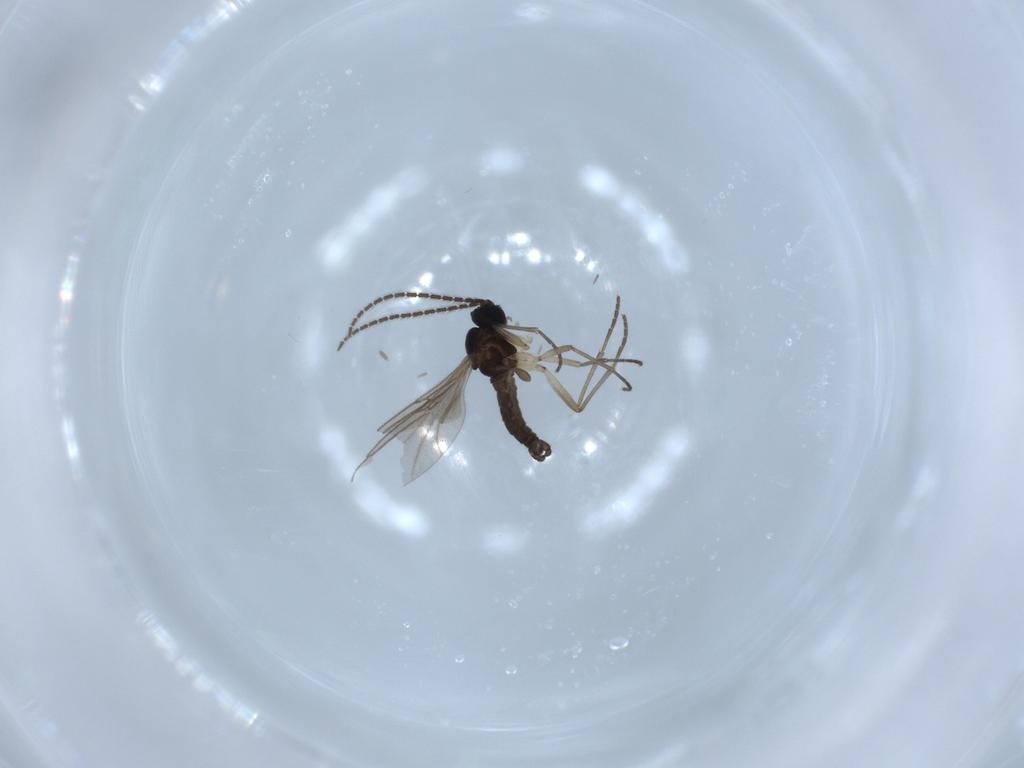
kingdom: Animalia
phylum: Arthropoda
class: Insecta
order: Diptera
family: Sciaridae
